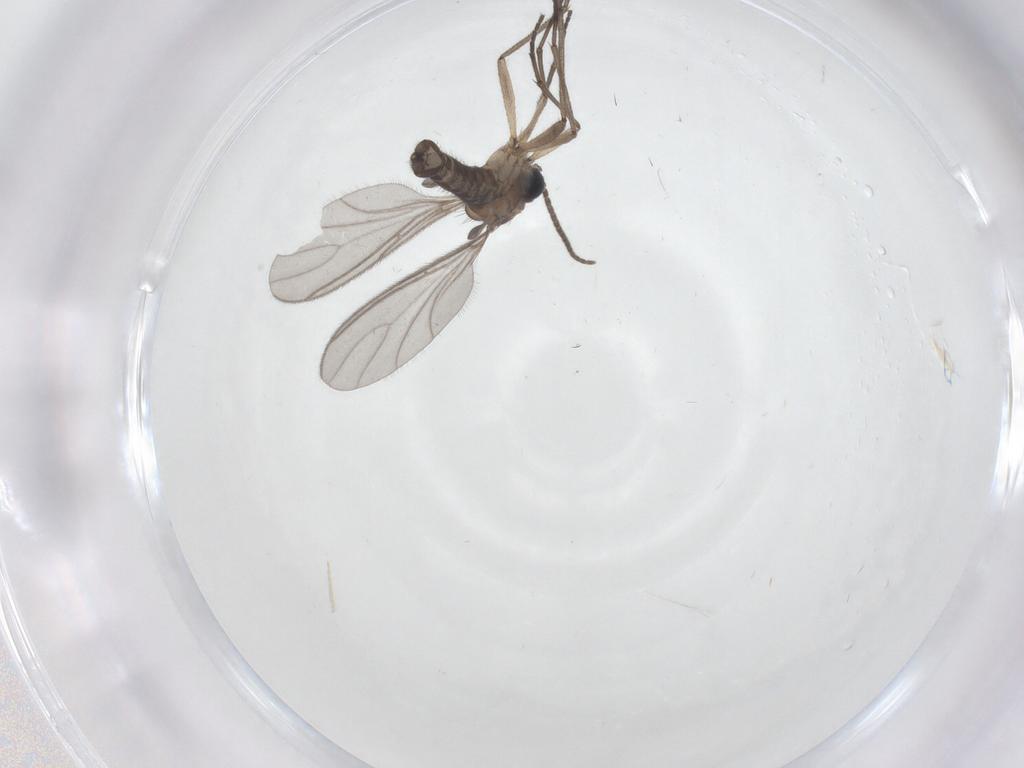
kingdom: Animalia
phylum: Arthropoda
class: Insecta
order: Diptera
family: Sciaridae
